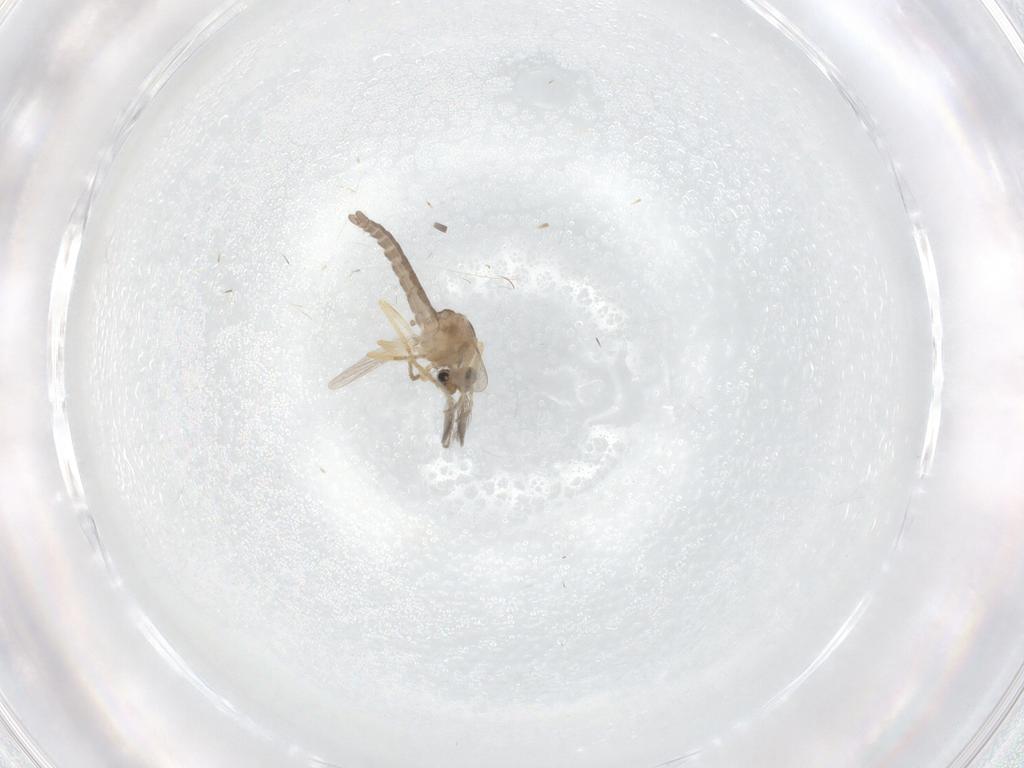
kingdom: Animalia
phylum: Arthropoda
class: Insecta
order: Diptera
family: Ceratopogonidae
